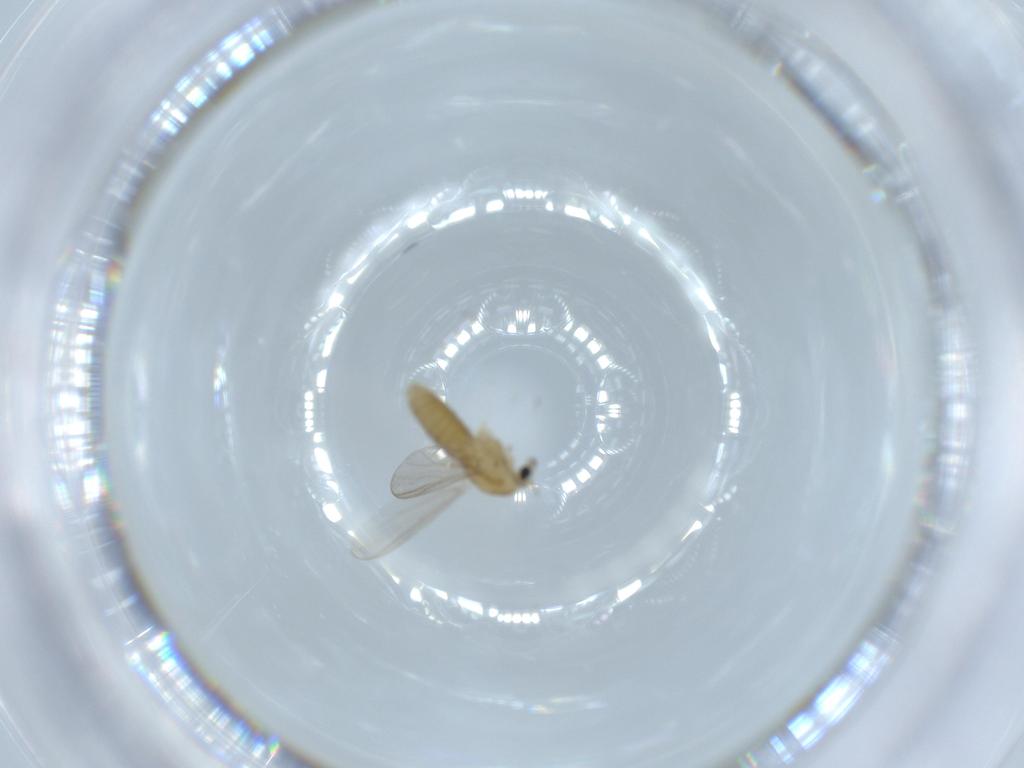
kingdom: Animalia
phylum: Arthropoda
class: Insecta
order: Diptera
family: Chironomidae
